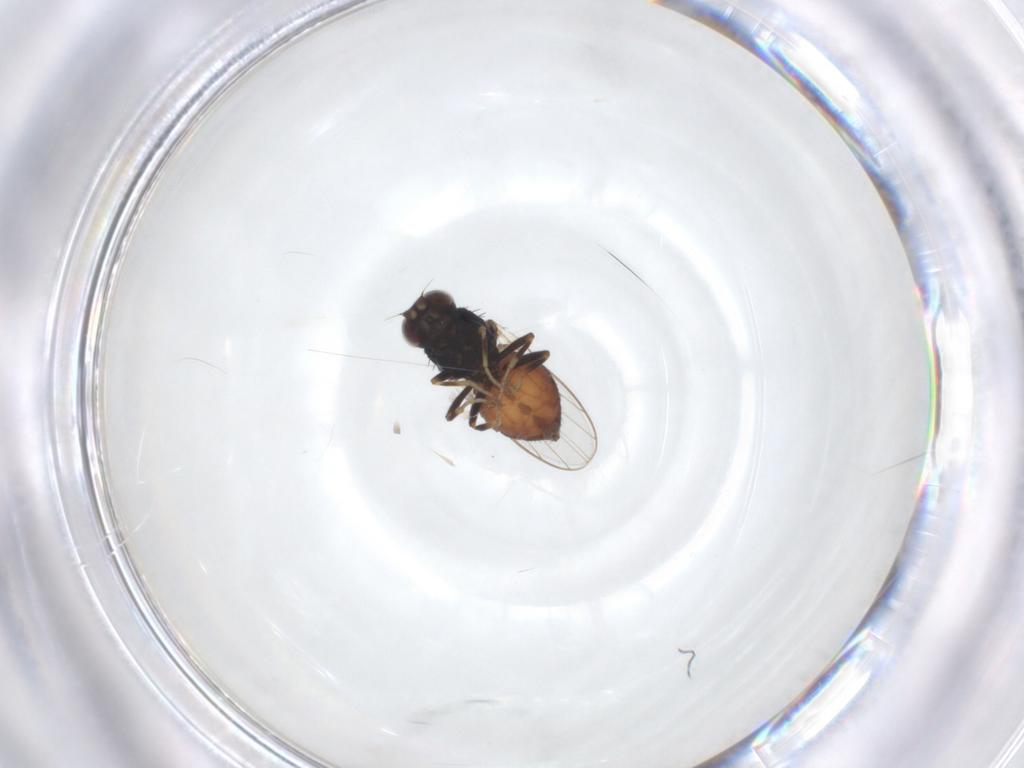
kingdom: Animalia
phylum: Arthropoda
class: Insecta
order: Diptera
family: Chloropidae
